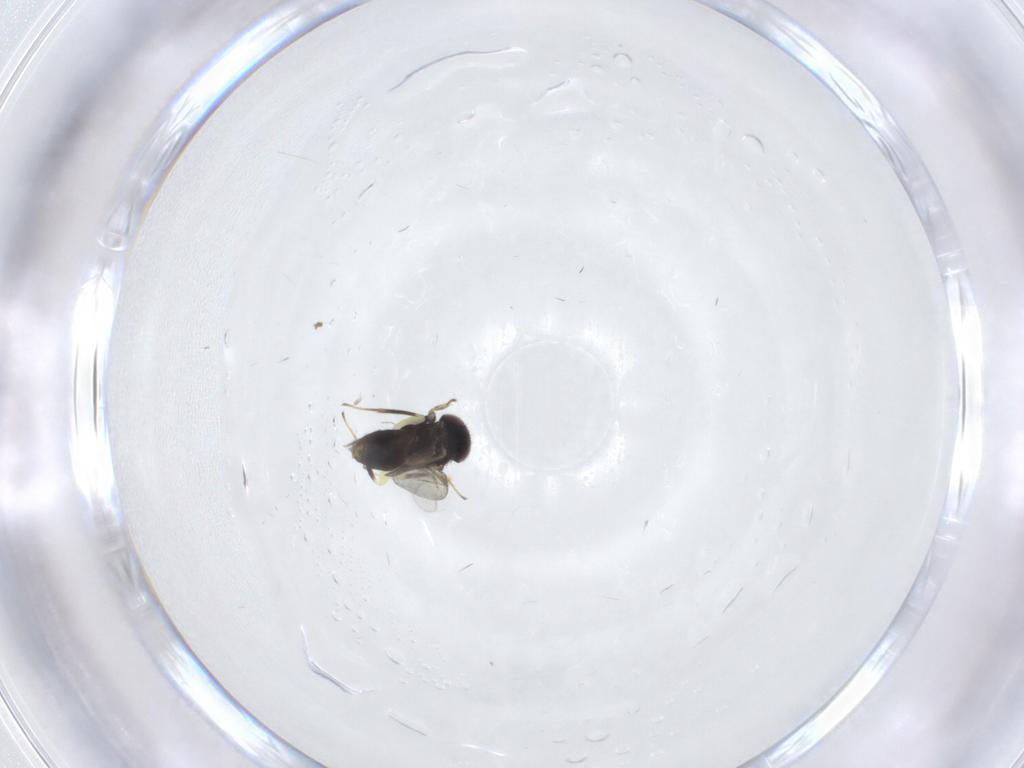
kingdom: Animalia
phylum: Arthropoda
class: Insecta
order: Hymenoptera
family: Aphelinidae
